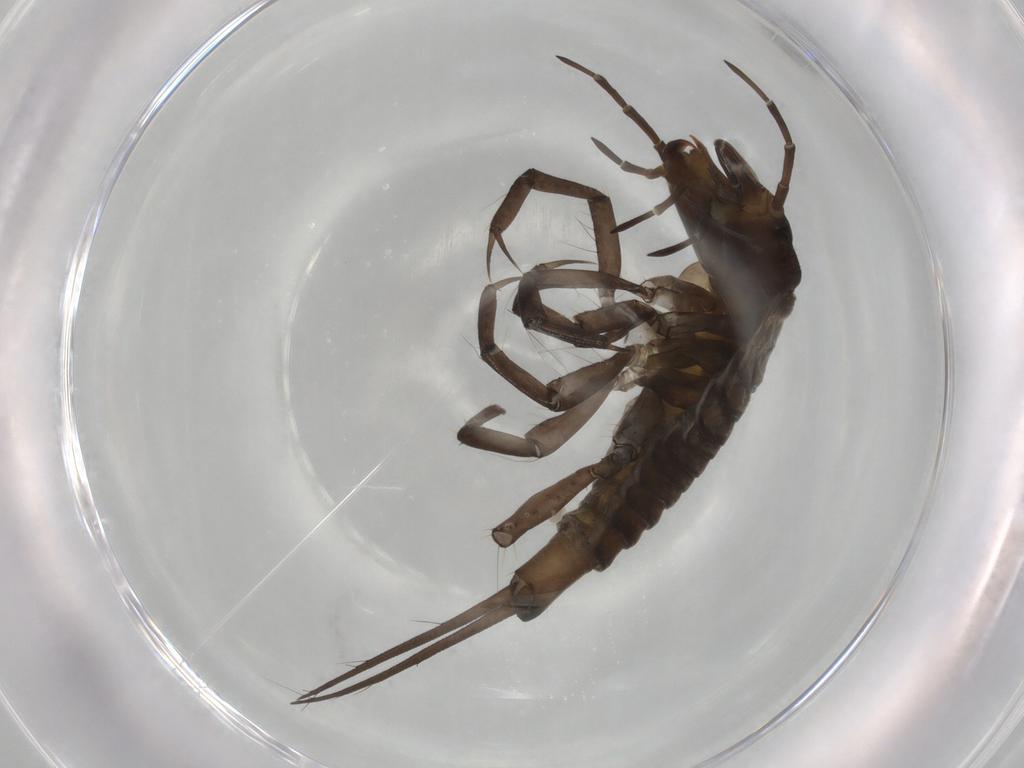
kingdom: Animalia
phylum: Arthropoda
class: Insecta
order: Coleoptera
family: Dytiscidae
